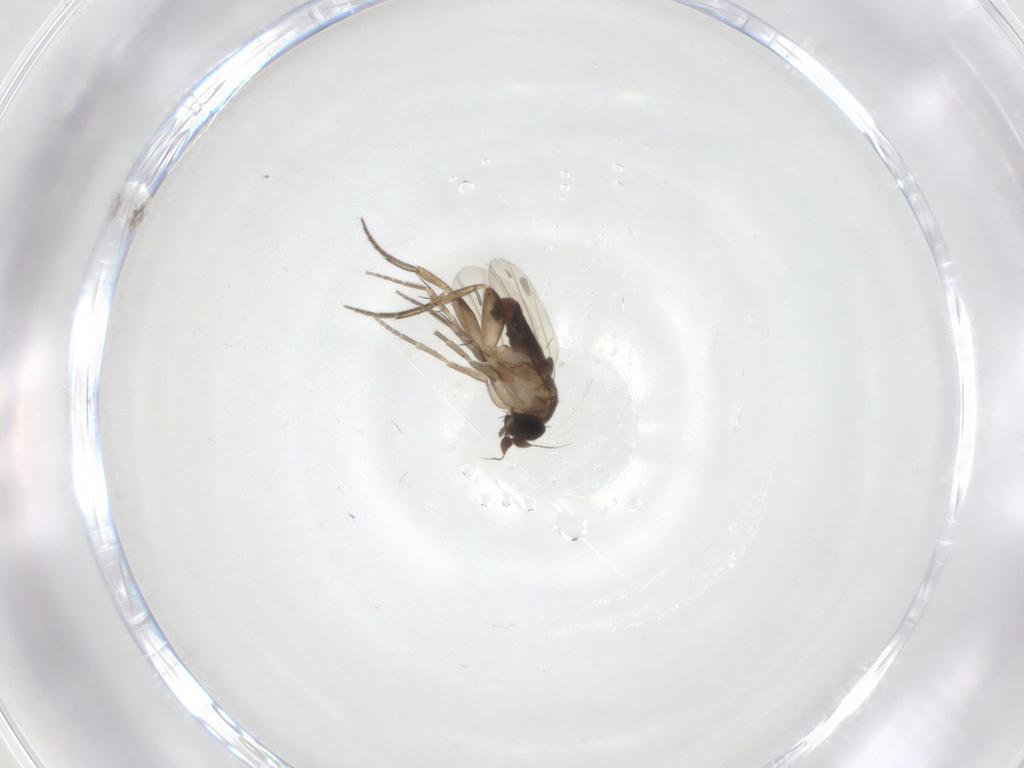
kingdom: Animalia
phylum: Arthropoda
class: Insecta
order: Diptera
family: Phoridae
